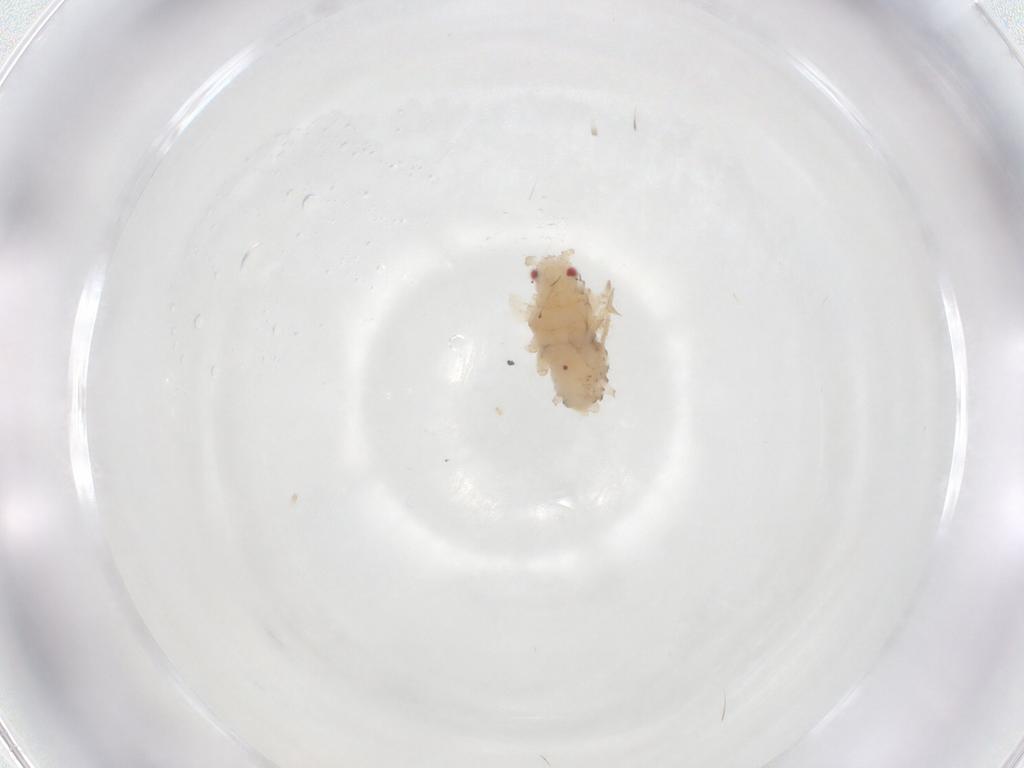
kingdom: Animalia
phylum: Arthropoda
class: Insecta
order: Hemiptera
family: Aphididae
